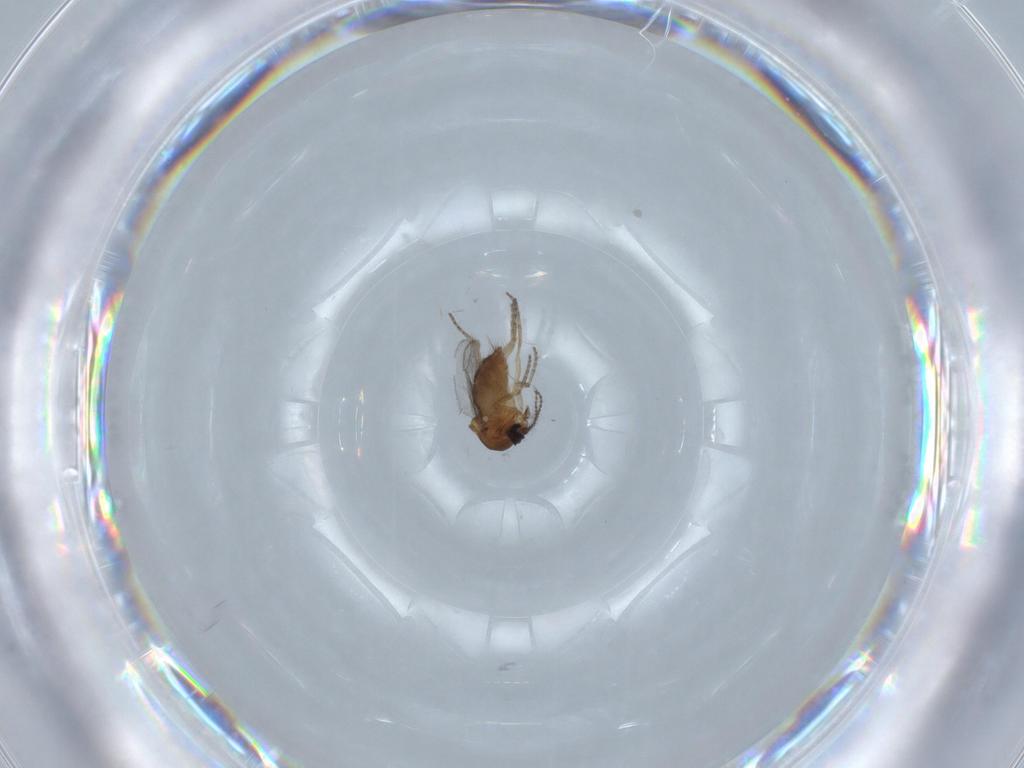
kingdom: Animalia
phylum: Arthropoda
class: Insecta
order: Diptera
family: Ceratopogonidae
